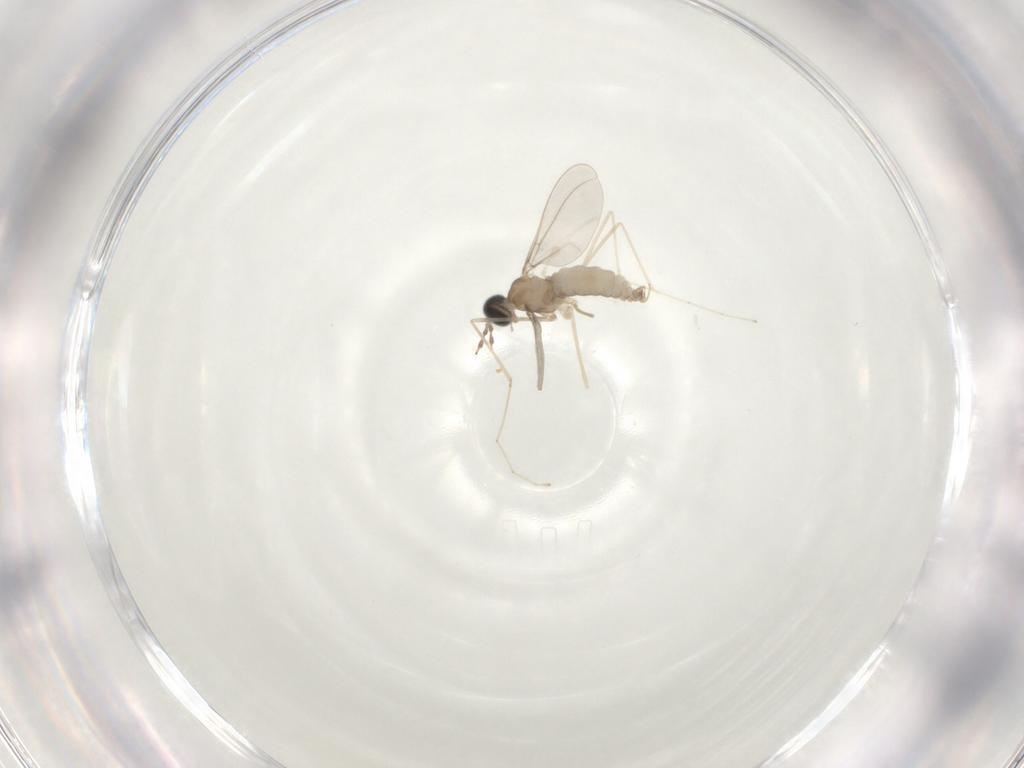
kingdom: Animalia
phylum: Arthropoda
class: Insecta
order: Diptera
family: Cecidomyiidae
